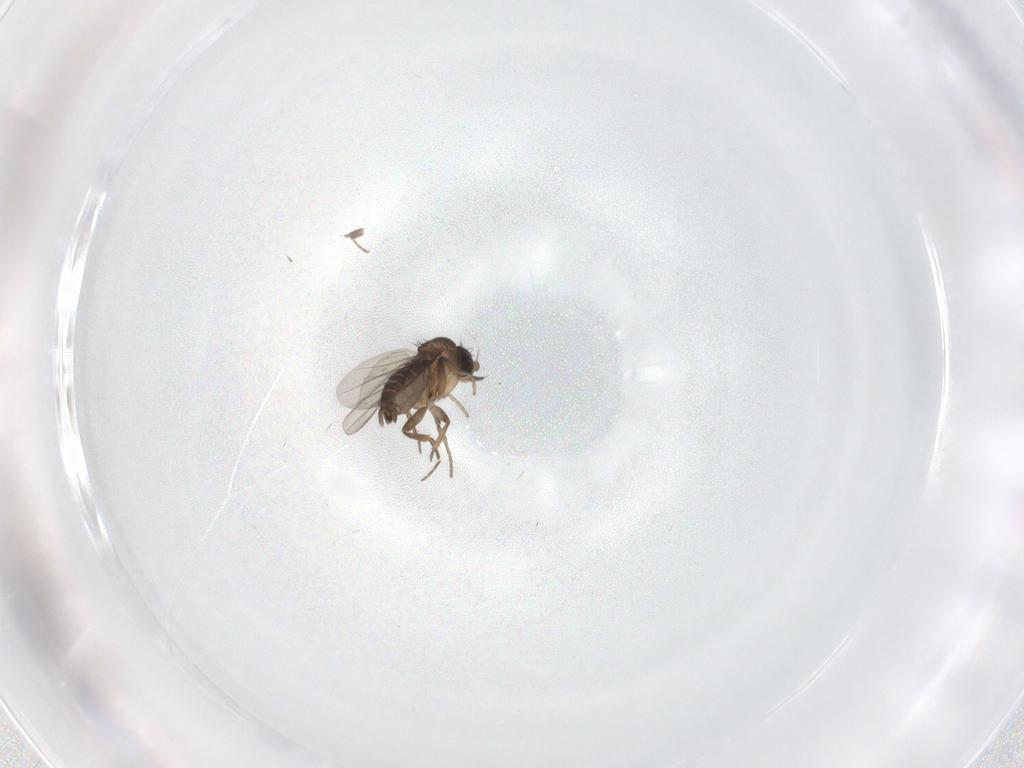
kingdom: Animalia
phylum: Arthropoda
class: Insecta
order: Diptera
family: Phoridae
